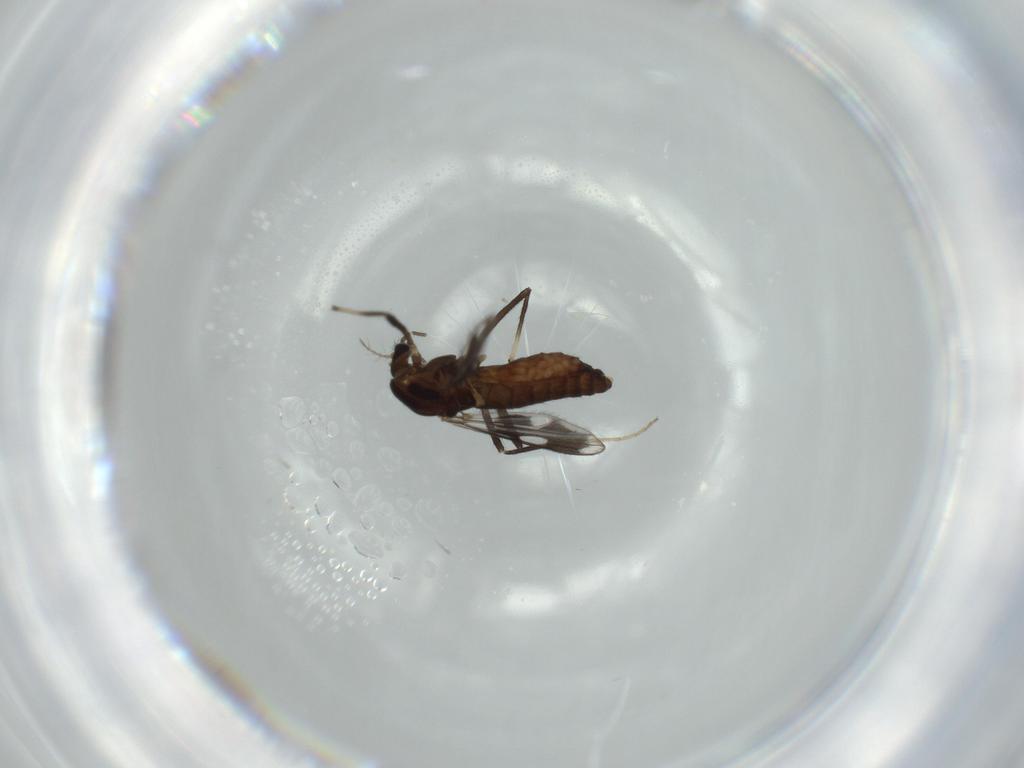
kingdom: Animalia
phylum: Arthropoda
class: Insecta
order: Diptera
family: Chironomidae
